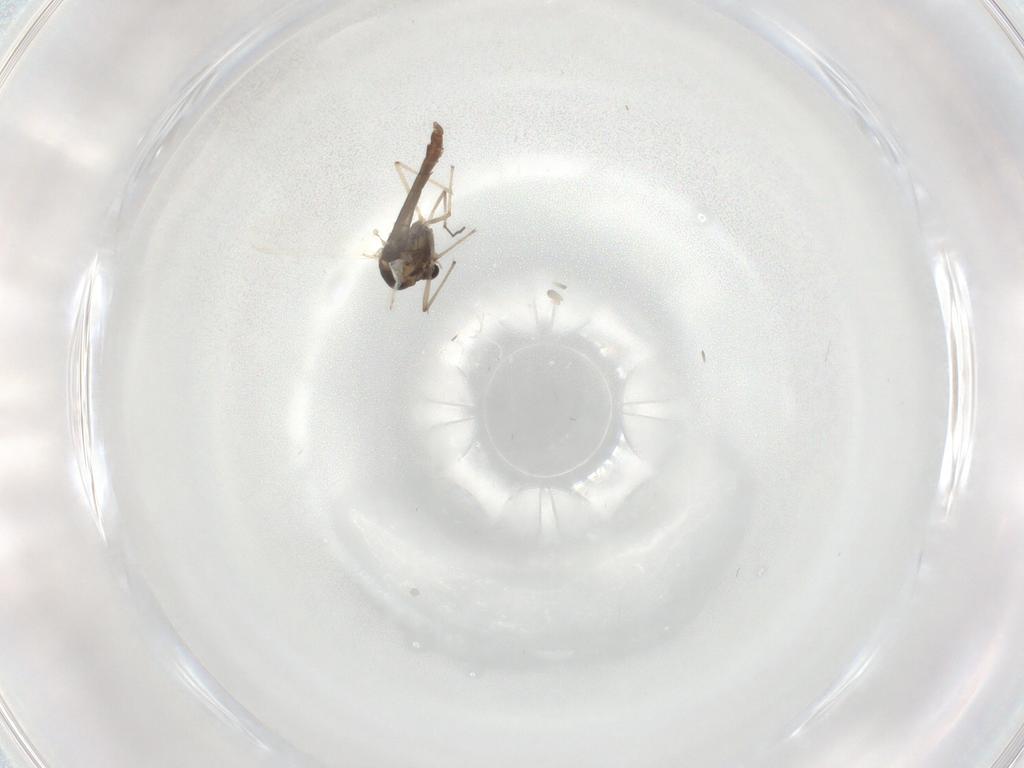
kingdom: Animalia
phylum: Arthropoda
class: Insecta
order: Diptera
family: Chironomidae
